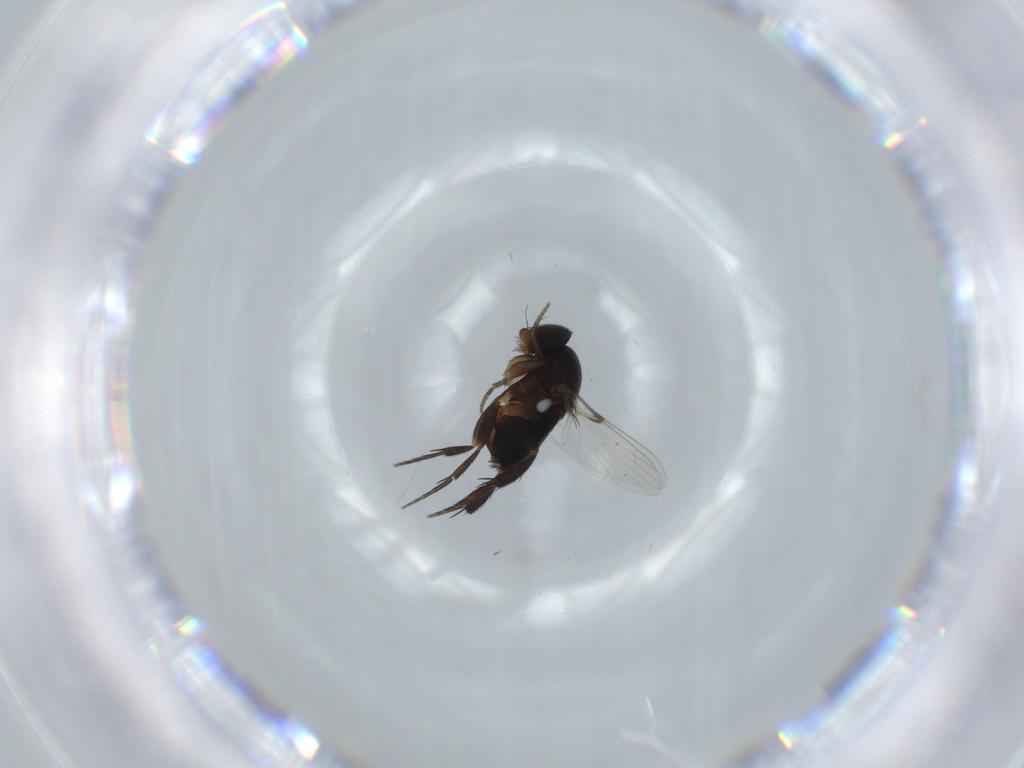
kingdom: Animalia
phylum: Arthropoda
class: Insecta
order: Diptera
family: Phoridae
